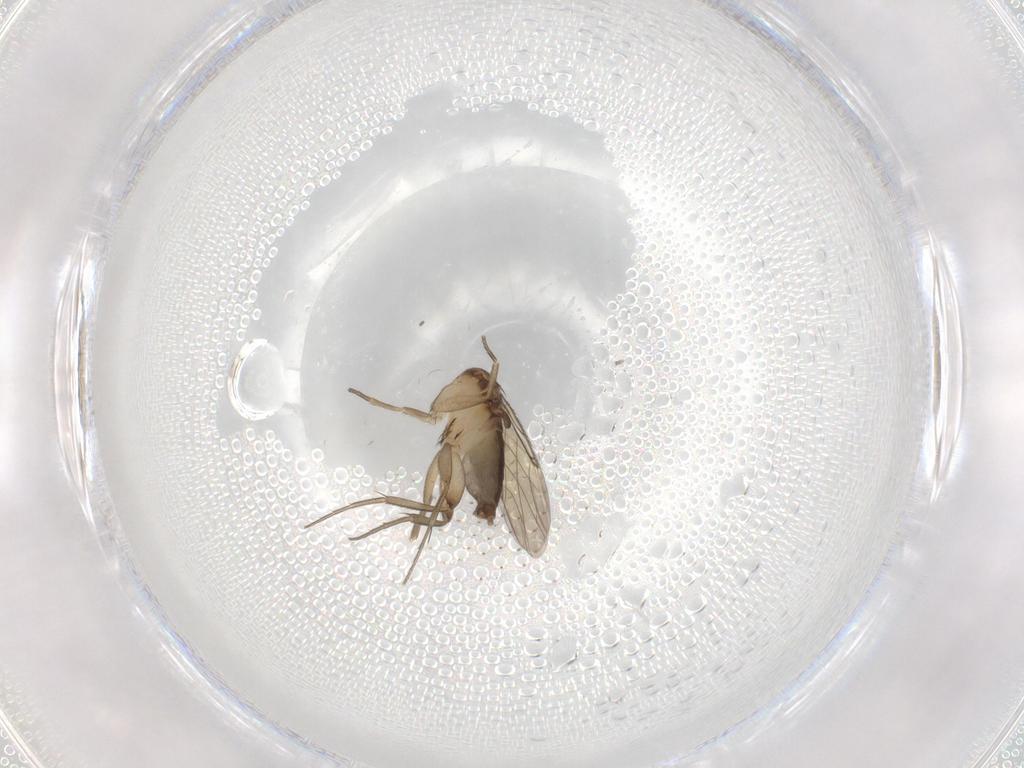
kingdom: Animalia
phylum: Arthropoda
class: Insecta
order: Diptera
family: Phoridae
